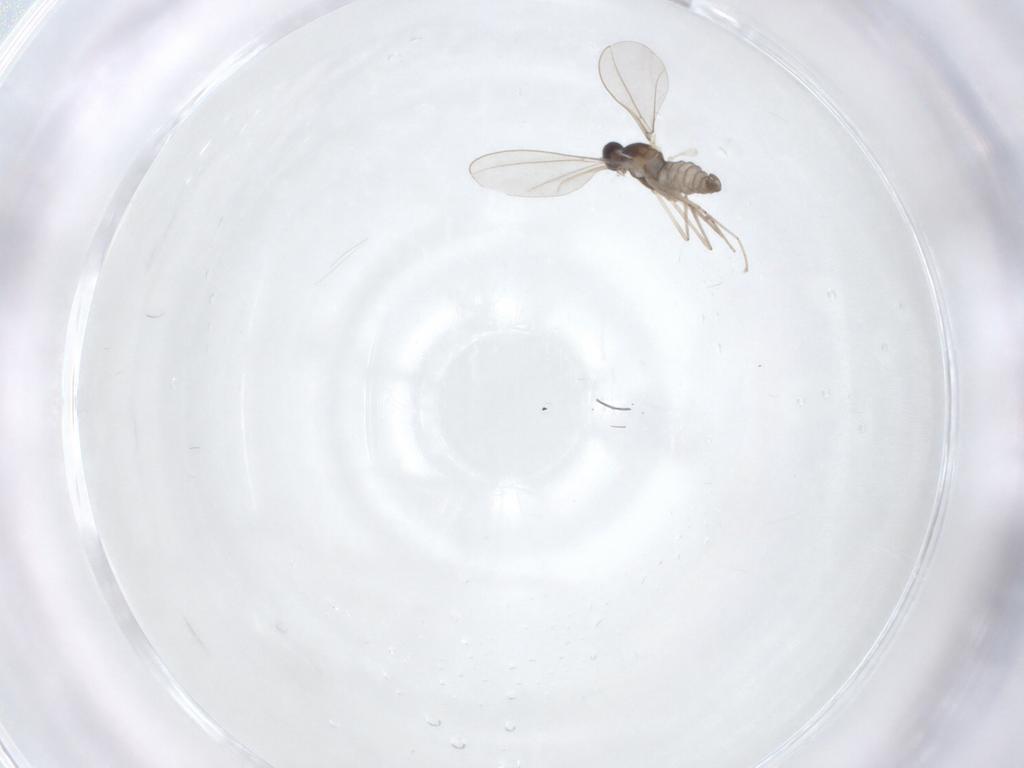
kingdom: Animalia
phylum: Arthropoda
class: Insecta
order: Diptera
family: Cecidomyiidae
